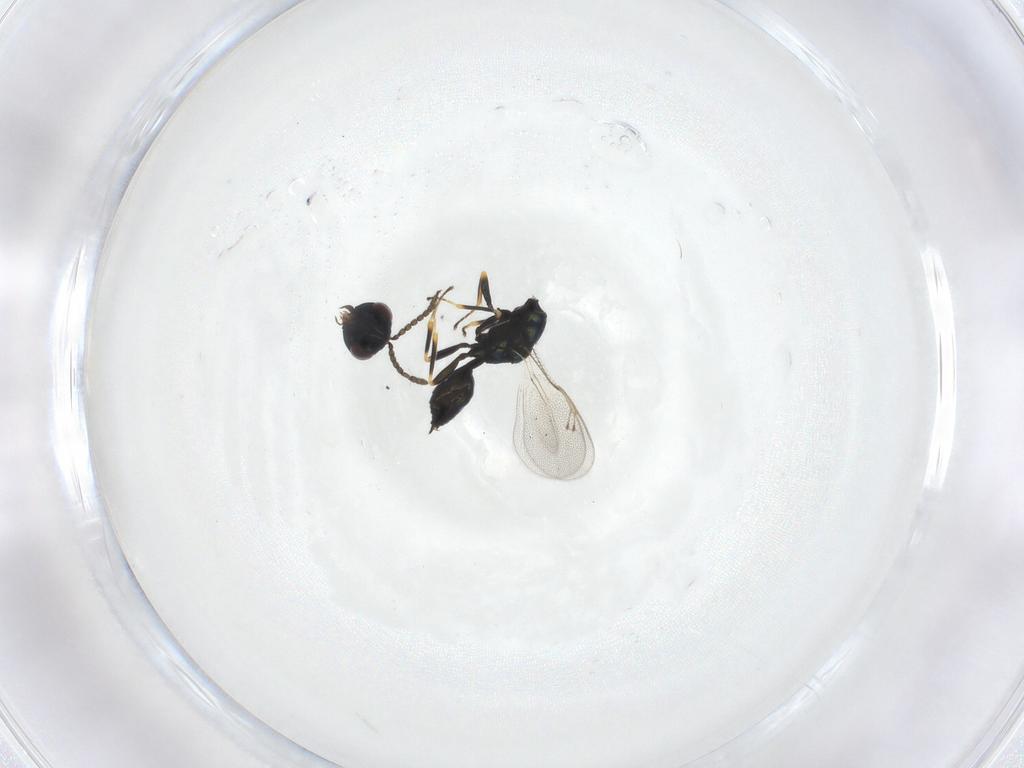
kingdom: Animalia
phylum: Arthropoda
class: Insecta
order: Hymenoptera
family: Pteromalidae
